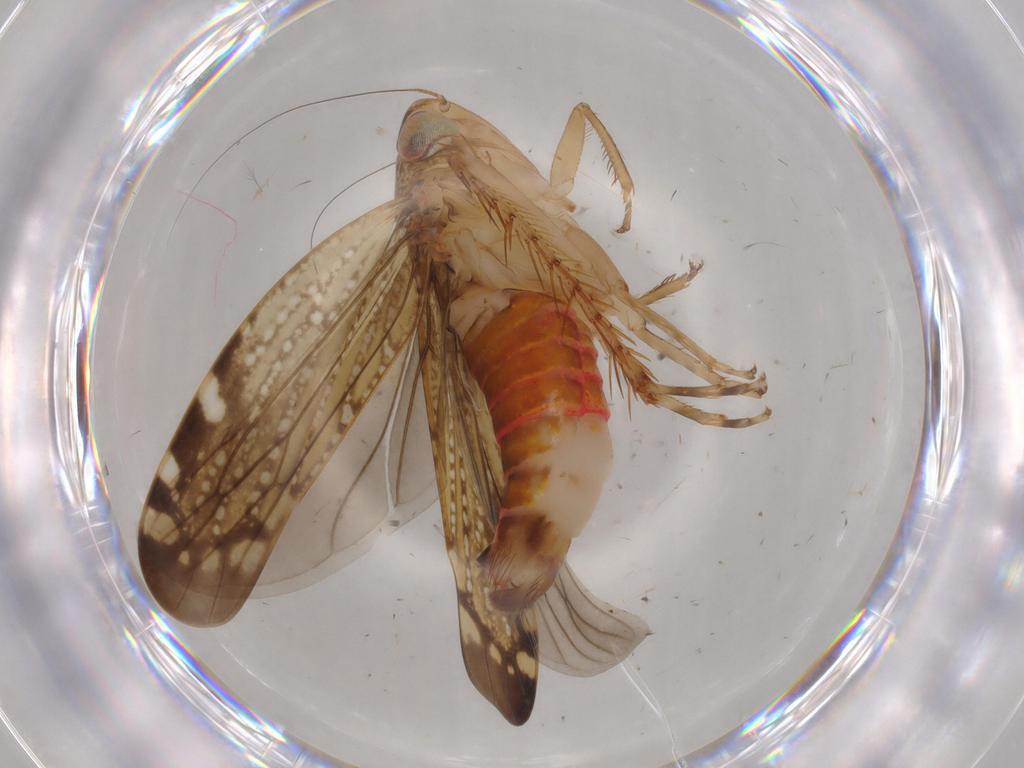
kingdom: Animalia
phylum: Arthropoda
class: Insecta
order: Hemiptera
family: Cicadellidae
